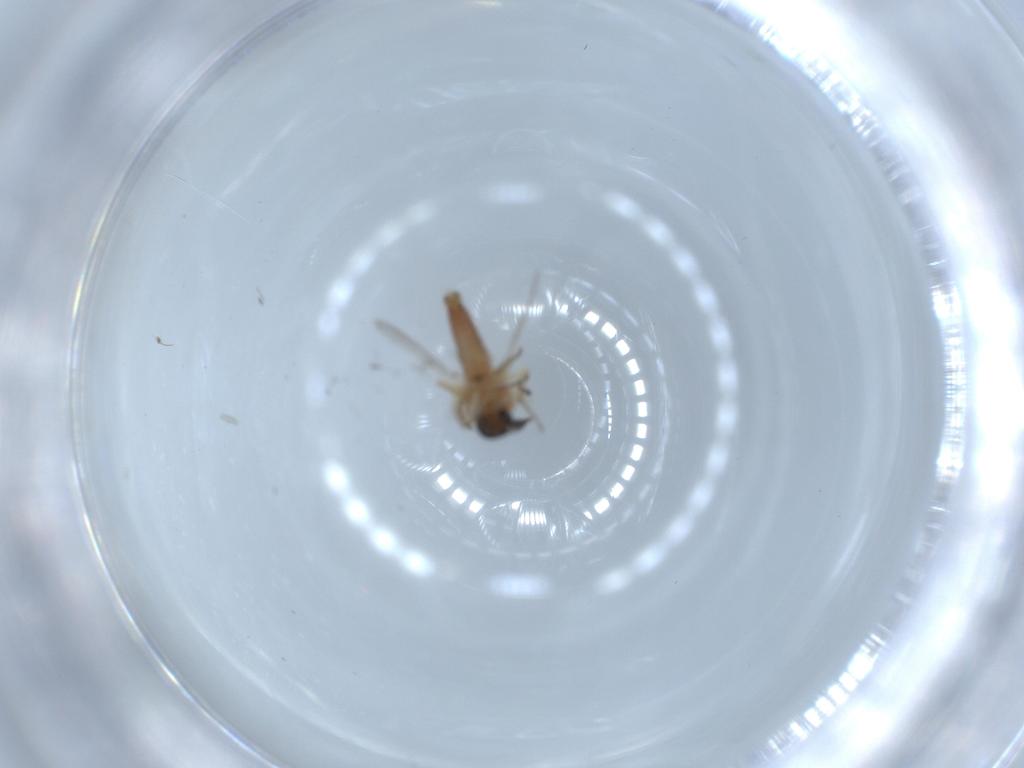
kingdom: Animalia
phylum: Arthropoda
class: Insecta
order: Diptera
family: Ceratopogonidae
